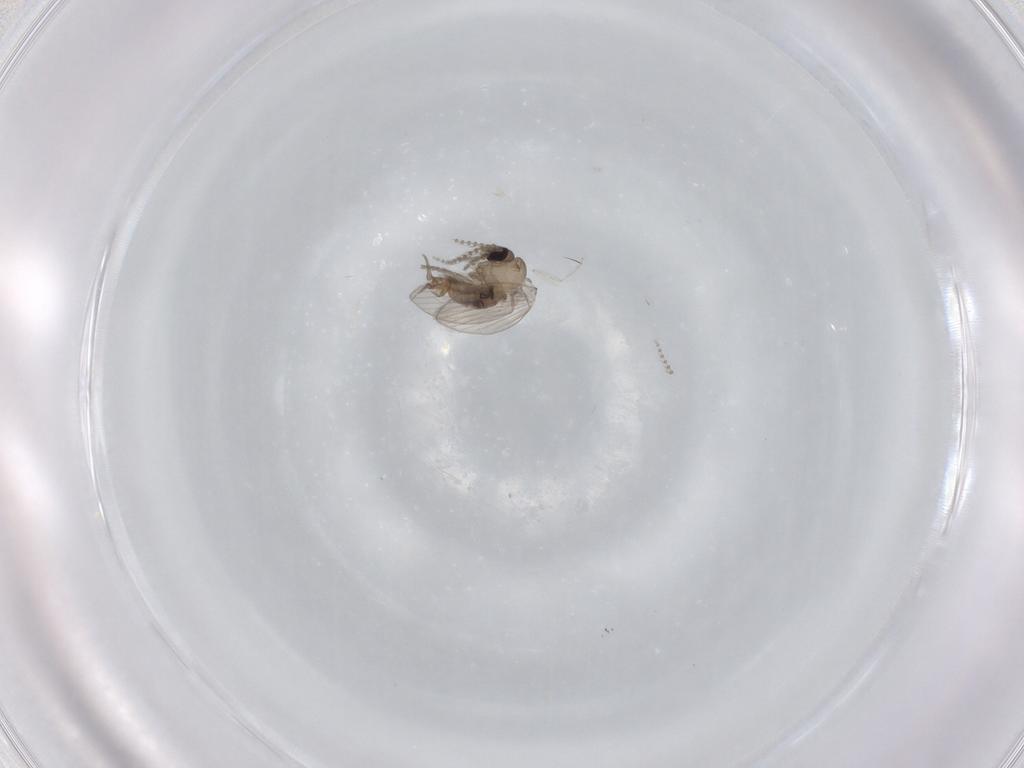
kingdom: Animalia
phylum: Arthropoda
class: Insecta
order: Diptera
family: Psychodidae
